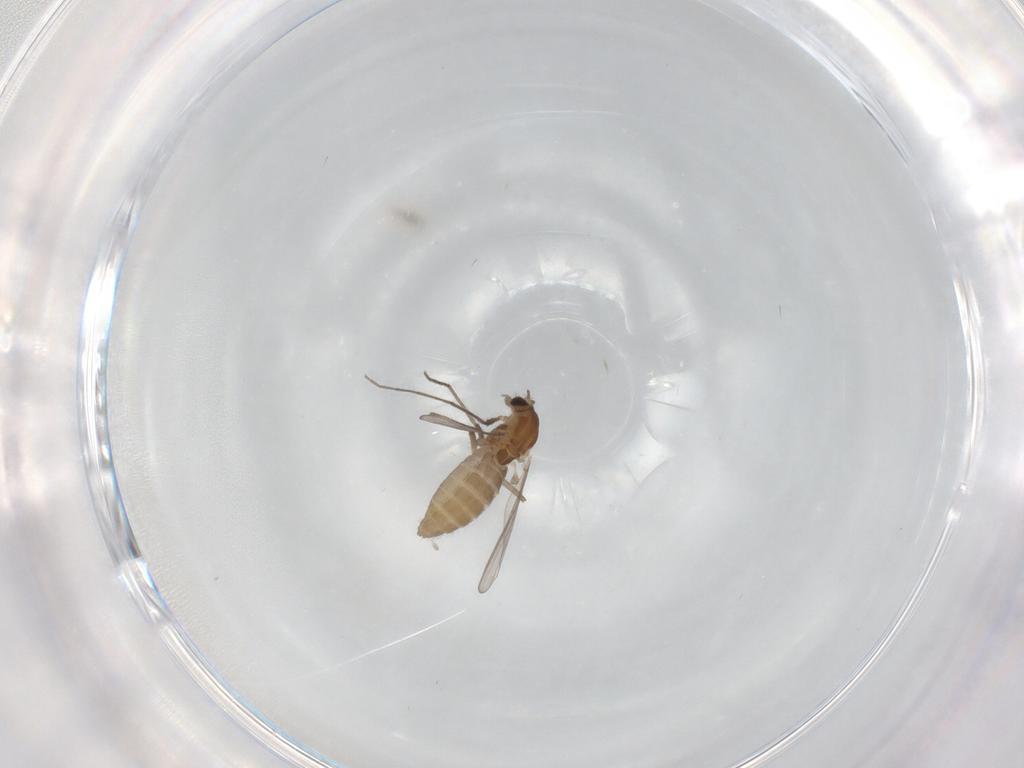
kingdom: Animalia
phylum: Arthropoda
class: Insecta
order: Diptera
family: Chironomidae
